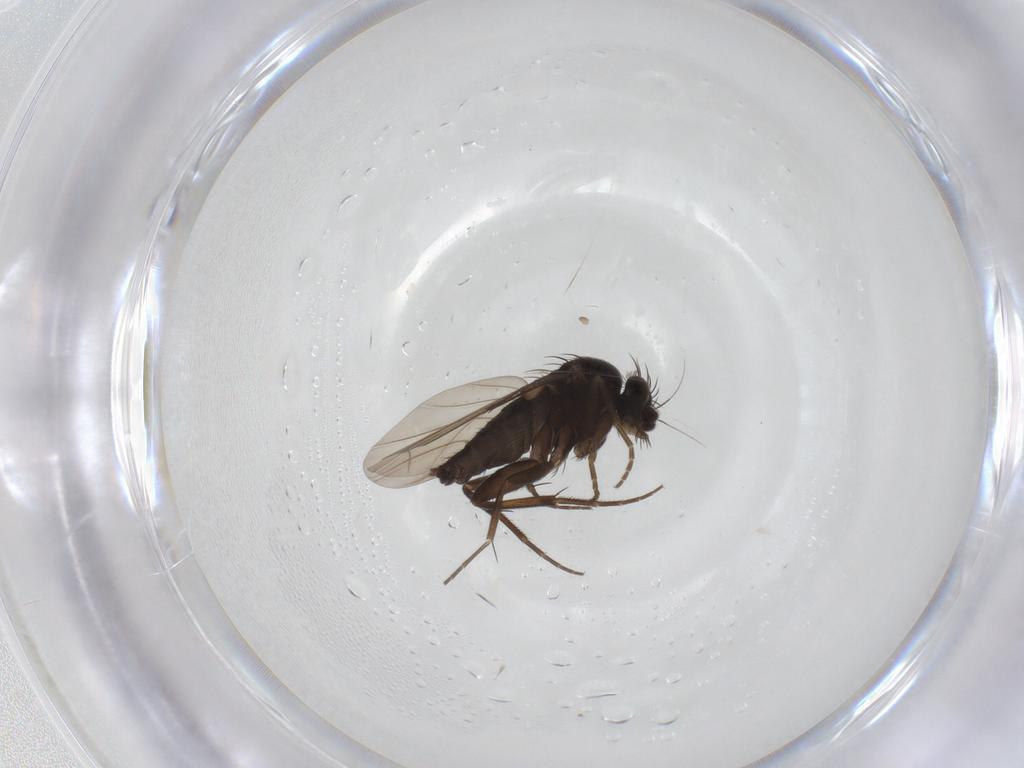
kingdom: Animalia
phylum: Arthropoda
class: Insecta
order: Diptera
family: Phoridae
